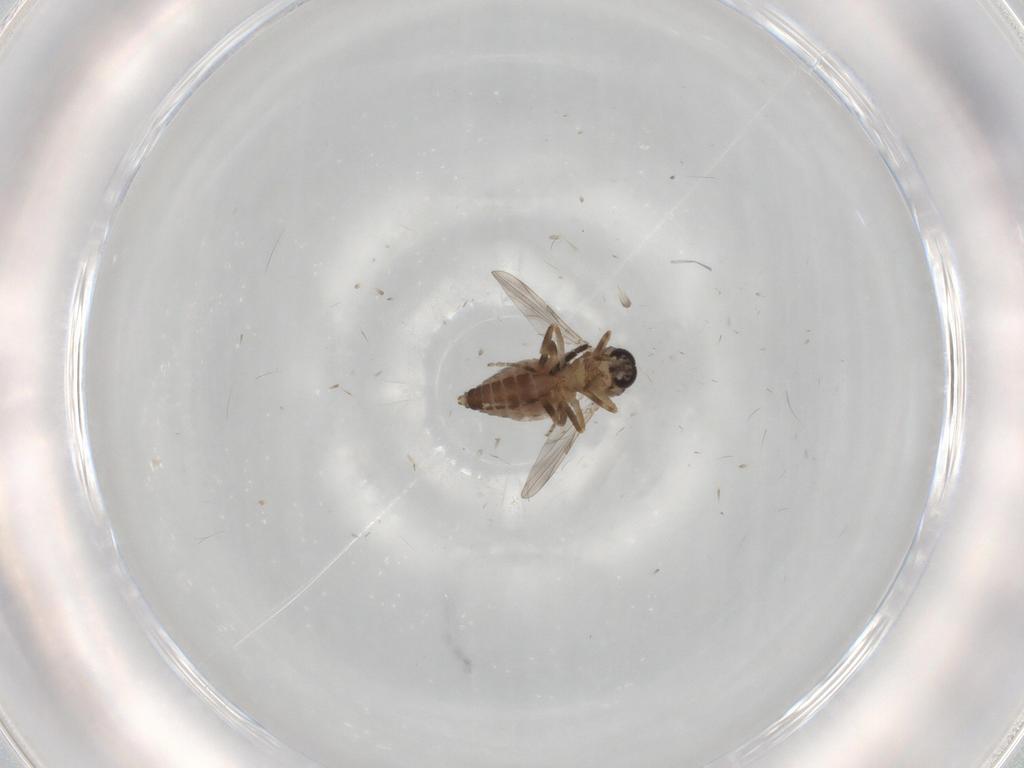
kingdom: Animalia
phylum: Arthropoda
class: Insecta
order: Diptera
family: Ceratopogonidae
